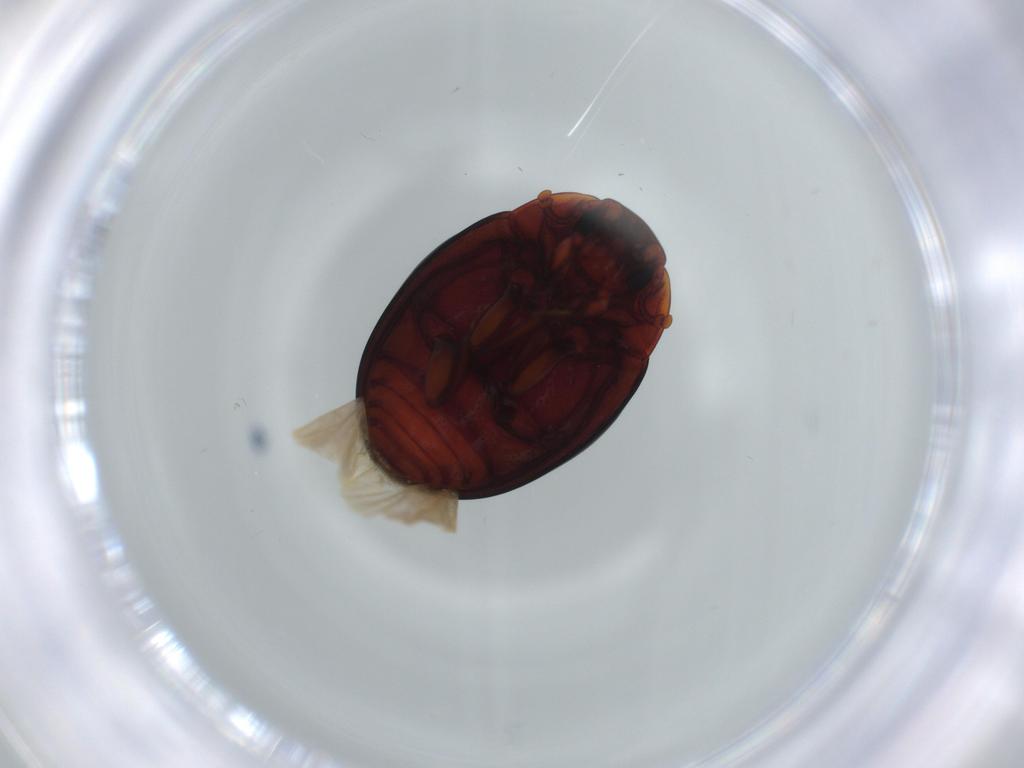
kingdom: Animalia
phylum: Arthropoda
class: Insecta
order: Coleoptera
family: Zopheridae
